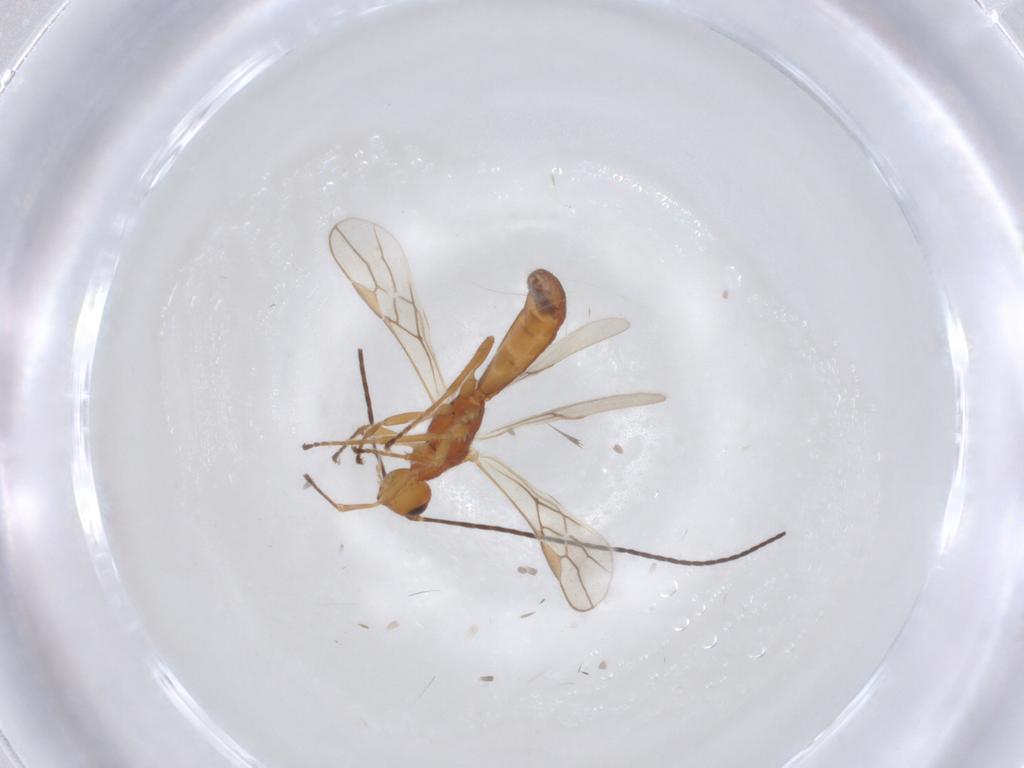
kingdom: Animalia
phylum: Arthropoda
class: Insecta
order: Hymenoptera
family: Braconidae
